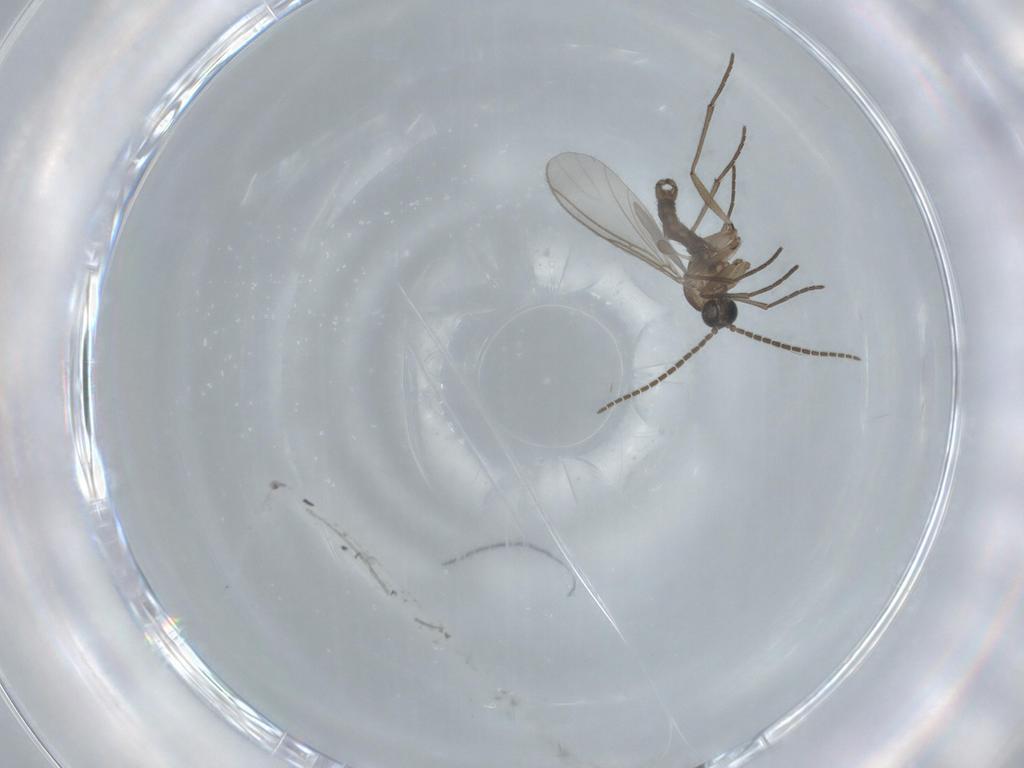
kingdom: Animalia
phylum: Arthropoda
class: Insecta
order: Diptera
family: Sciaridae
